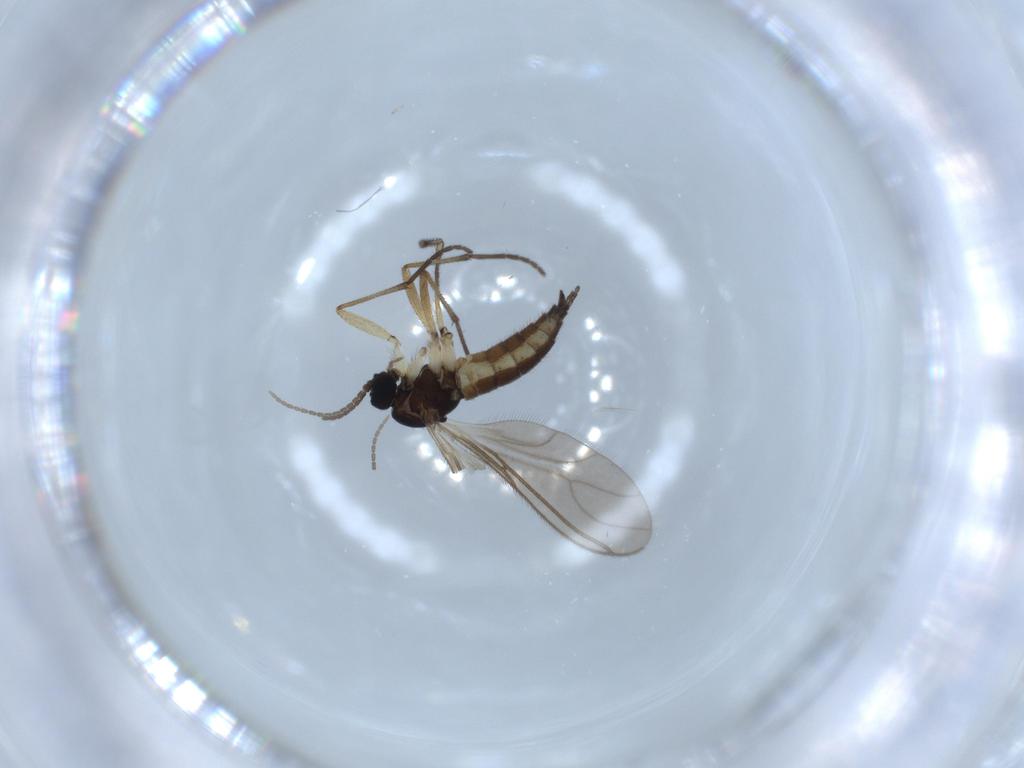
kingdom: Animalia
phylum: Arthropoda
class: Insecta
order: Diptera
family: Sciaridae
